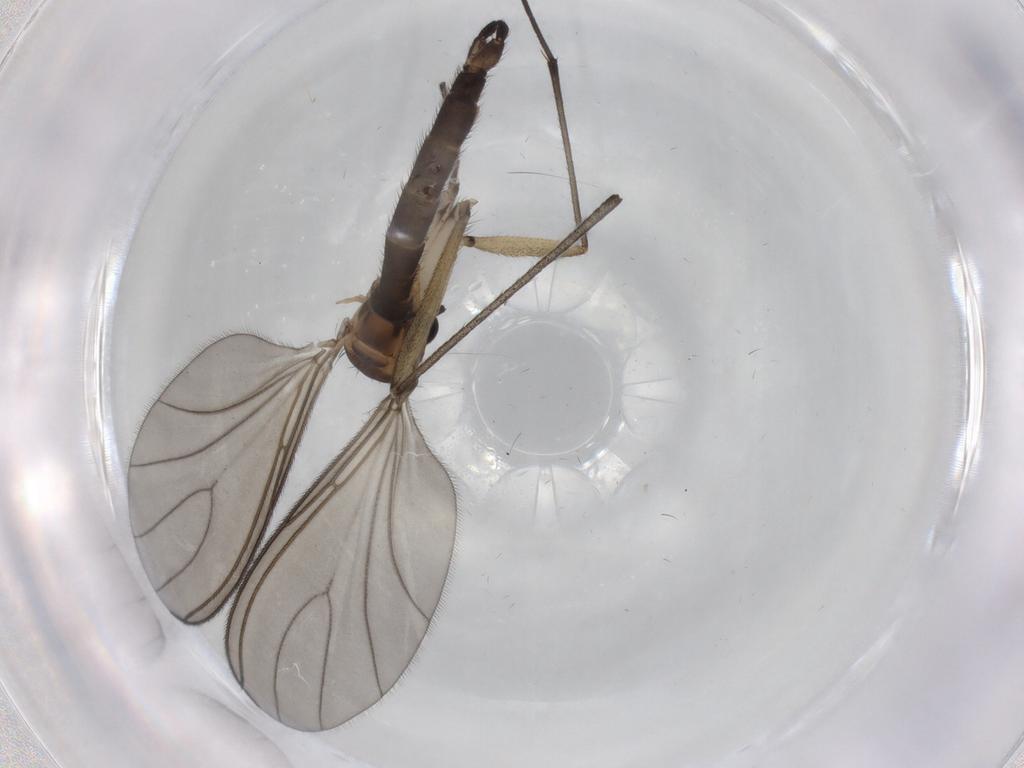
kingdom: Animalia
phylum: Arthropoda
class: Insecta
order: Diptera
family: Sciaridae
